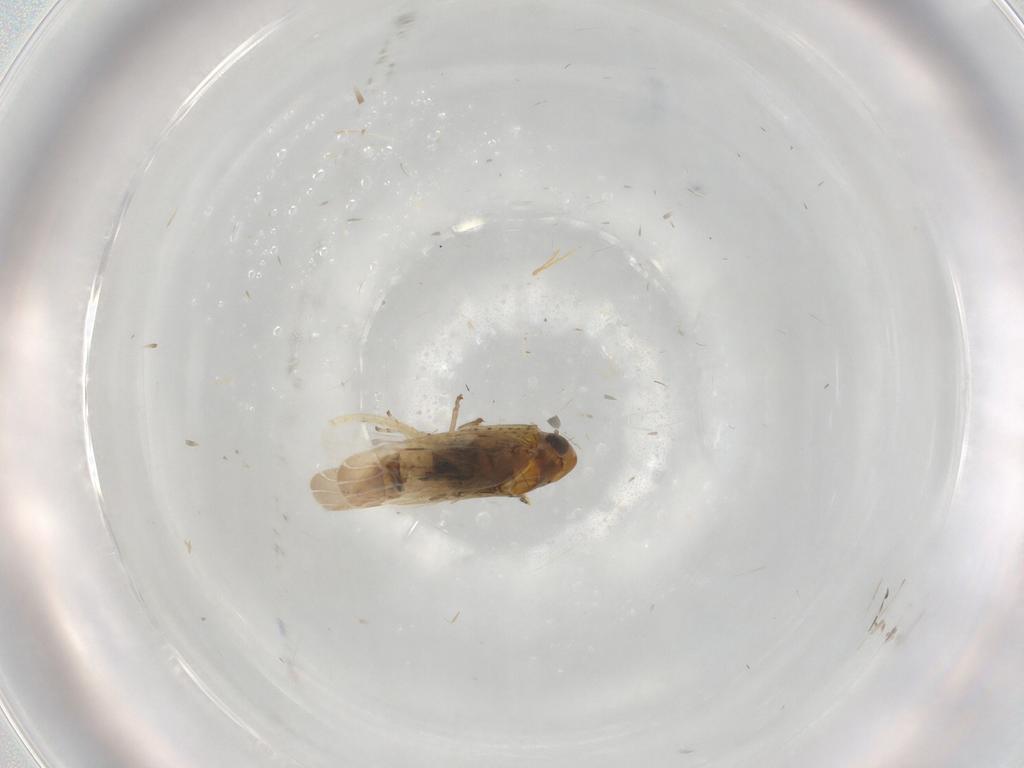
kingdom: Animalia
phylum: Arthropoda
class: Insecta
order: Hemiptera
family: Cicadellidae
